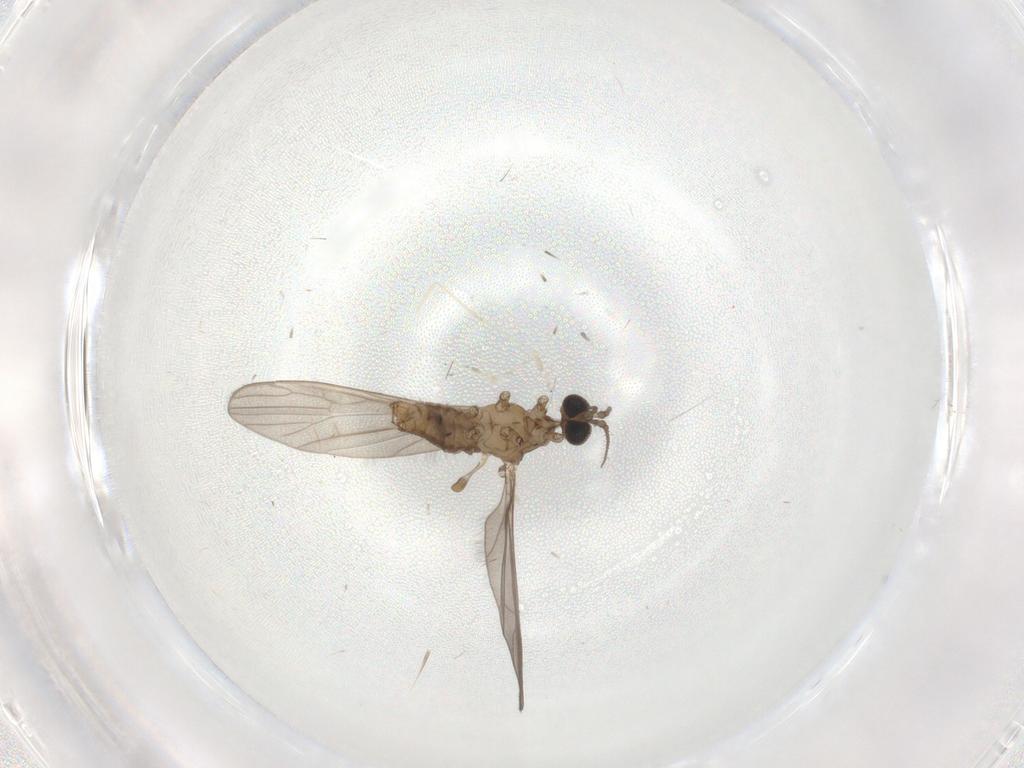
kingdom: Animalia
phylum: Arthropoda
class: Insecta
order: Diptera
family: Sciaridae
